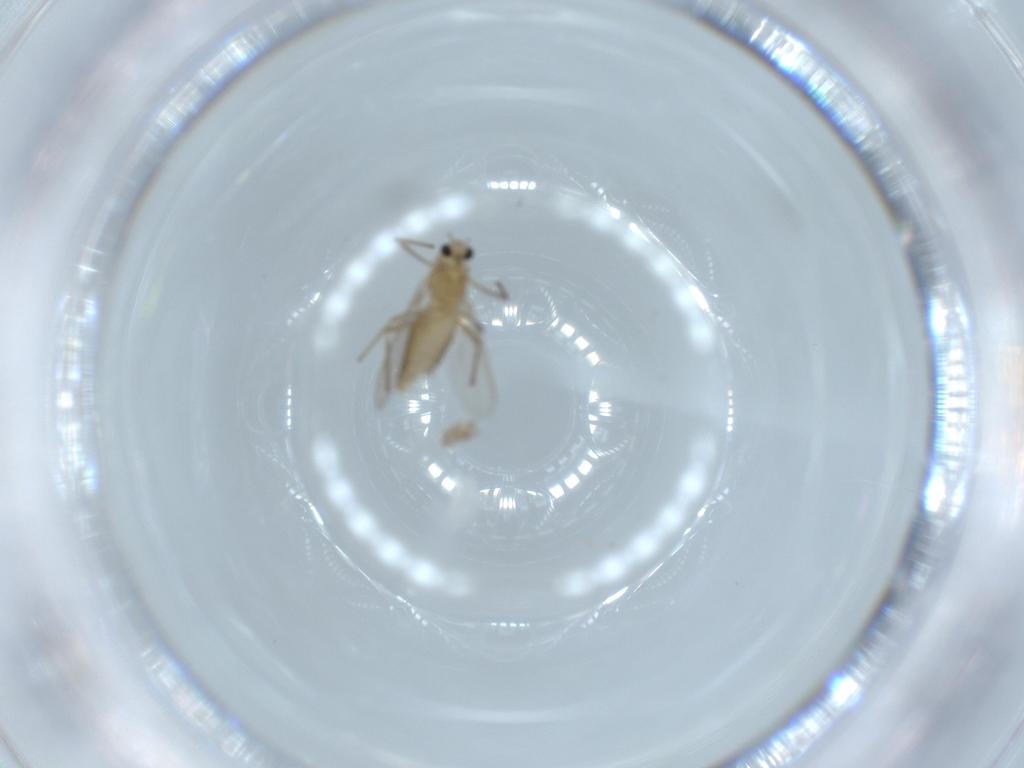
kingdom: Animalia
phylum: Arthropoda
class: Insecta
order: Diptera
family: Chironomidae
